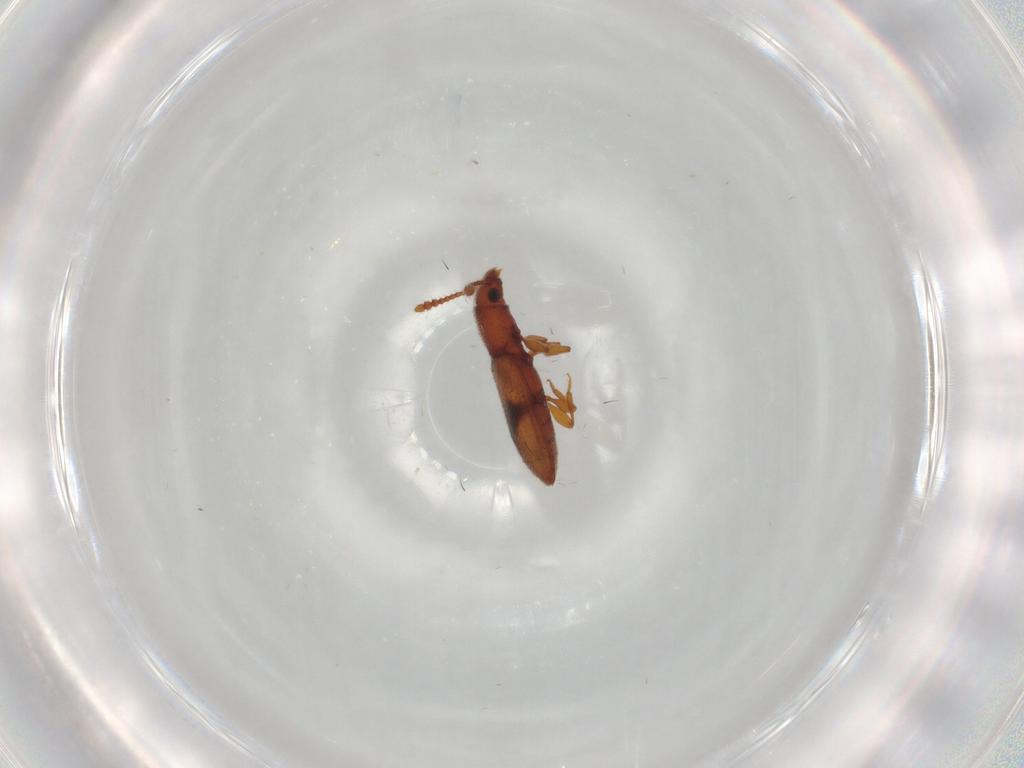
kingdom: Animalia
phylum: Arthropoda
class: Insecta
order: Coleoptera
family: Silvanidae
